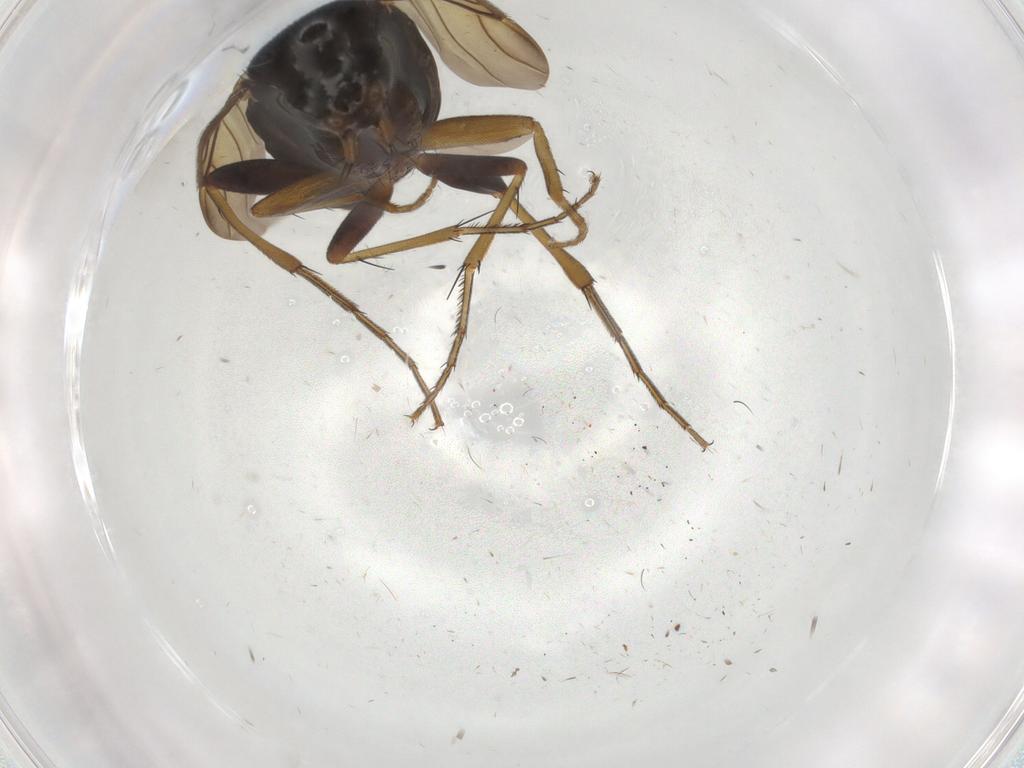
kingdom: Animalia
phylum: Arthropoda
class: Insecta
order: Diptera
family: Phoridae
